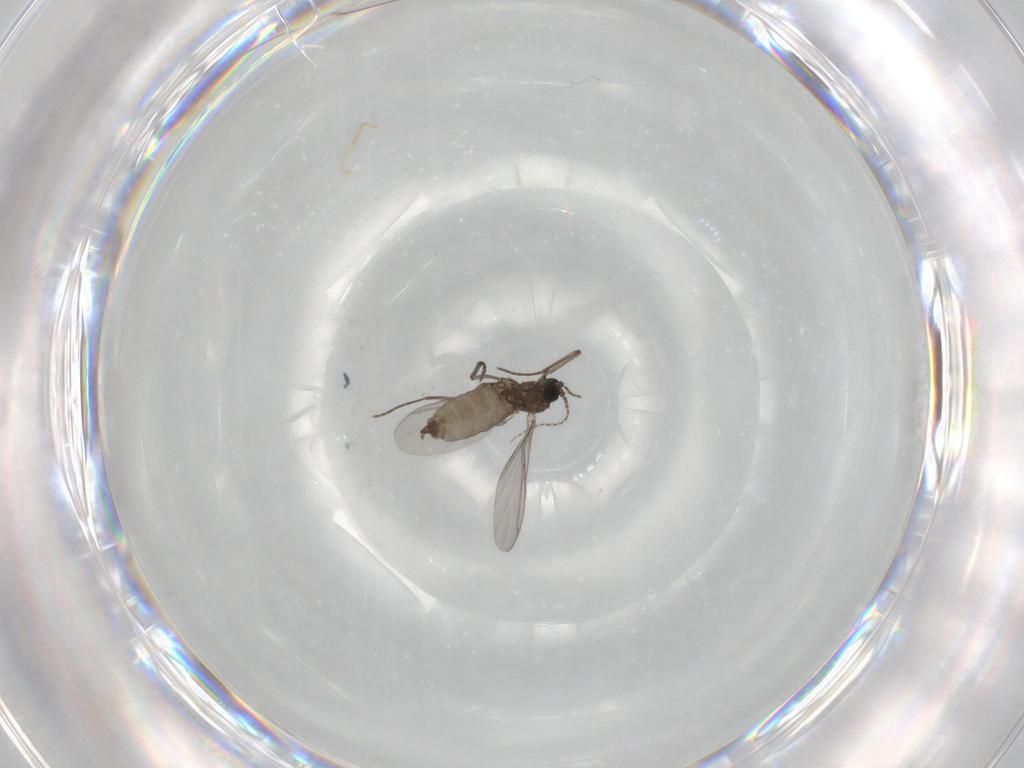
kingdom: Animalia
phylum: Arthropoda
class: Insecta
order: Diptera
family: Sciaridae
